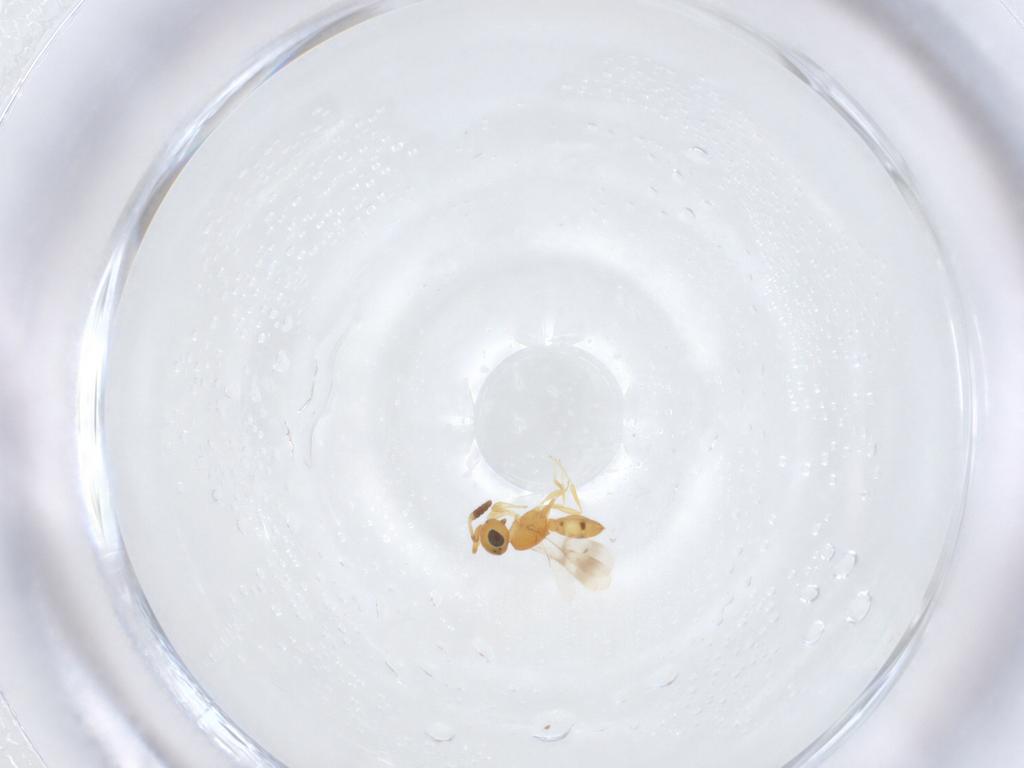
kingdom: Animalia
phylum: Arthropoda
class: Insecta
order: Hymenoptera
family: Scelionidae
